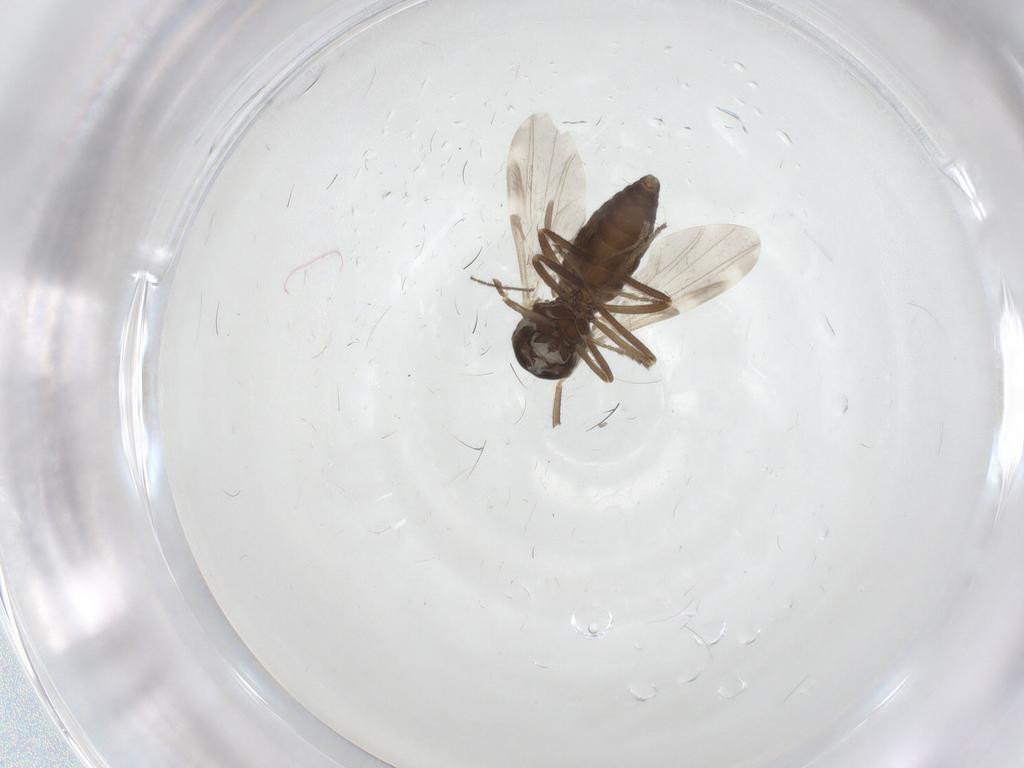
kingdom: Animalia
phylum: Arthropoda
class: Insecta
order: Diptera
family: Ceratopogonidae
